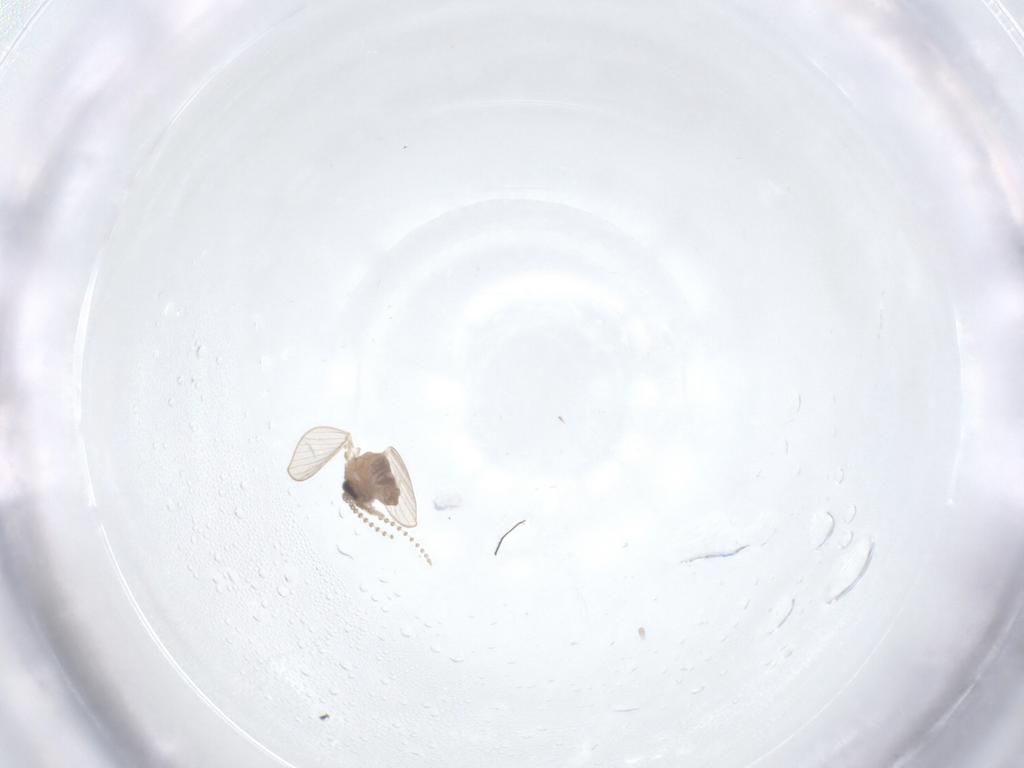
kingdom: Animalia
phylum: Arthropoda
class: Insecta
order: Diptera
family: Psychodidae
